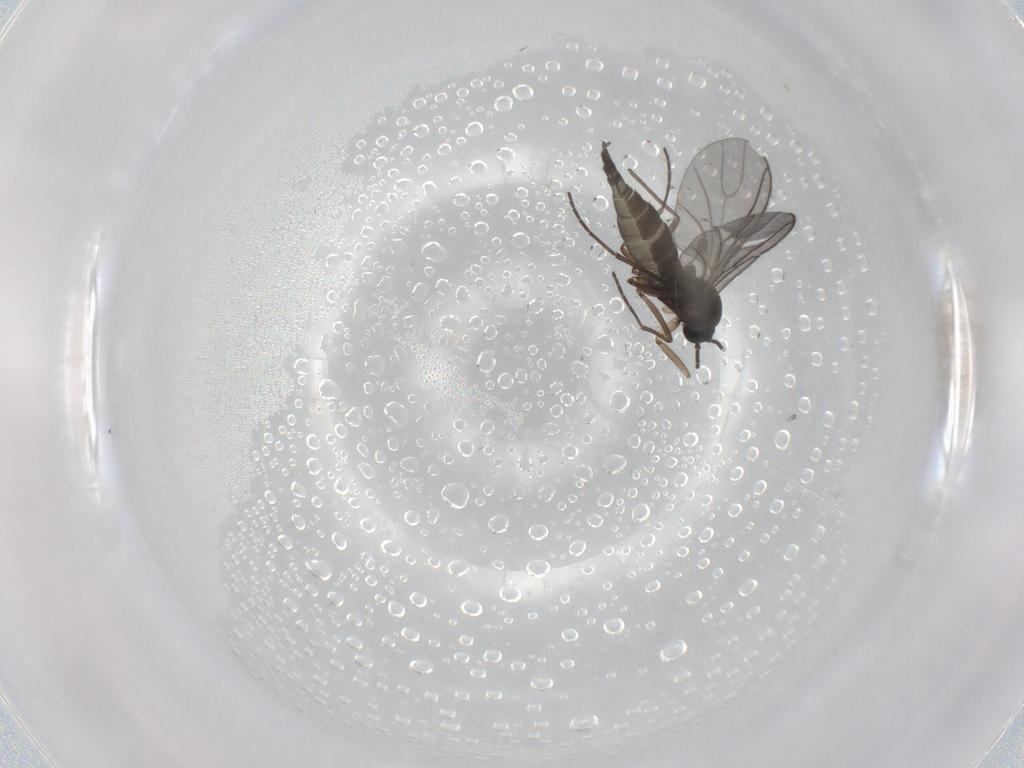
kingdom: Animalia
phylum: Arthropoda
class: Insecta
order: Diptera
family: Sciaridae
